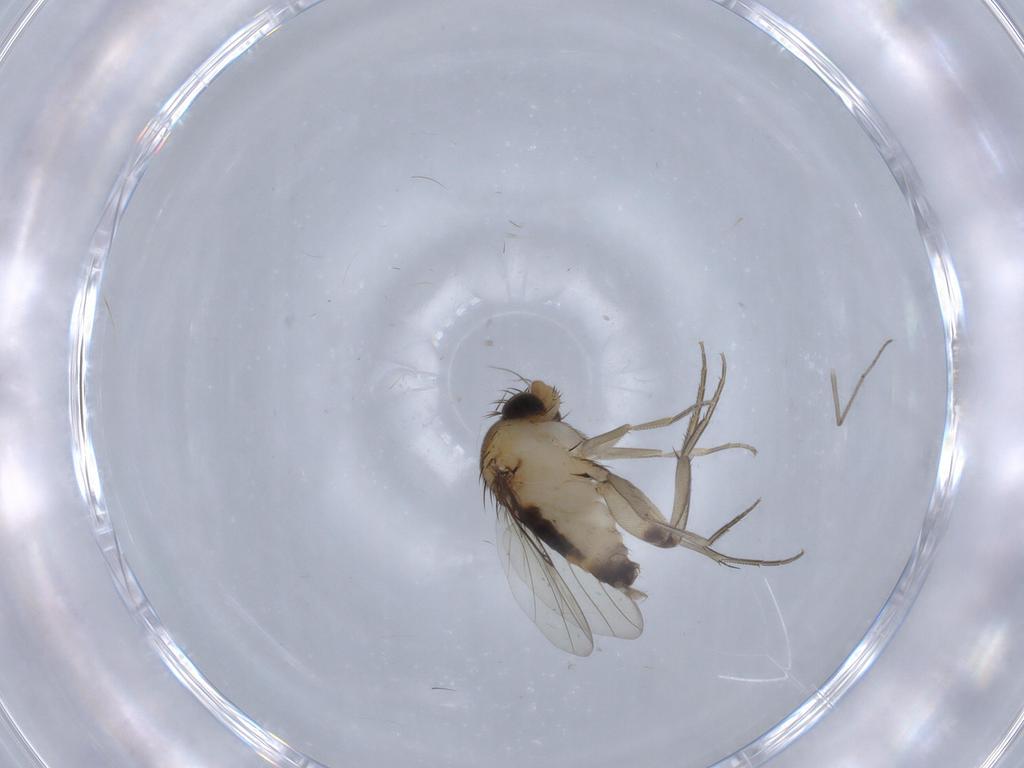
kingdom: Animalia
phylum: Arthropoda
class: Insecta
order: Diptera
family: Phoridae
